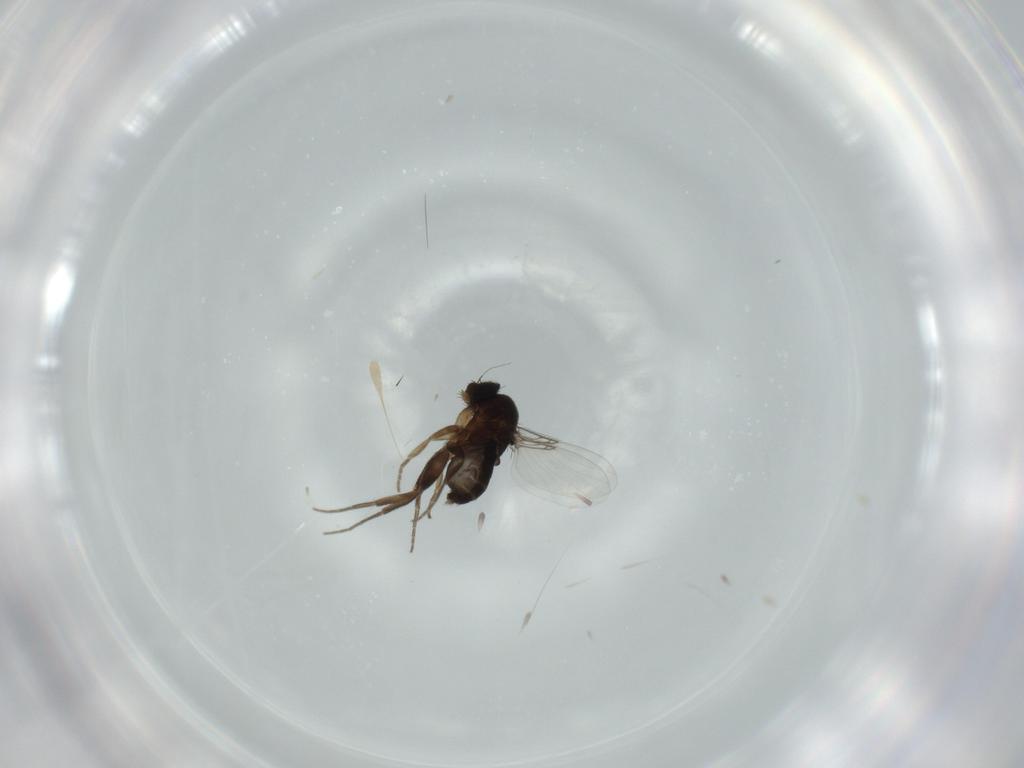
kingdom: Animalia
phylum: Arthropoda
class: Insecta
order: Diptera
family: Phoridae
